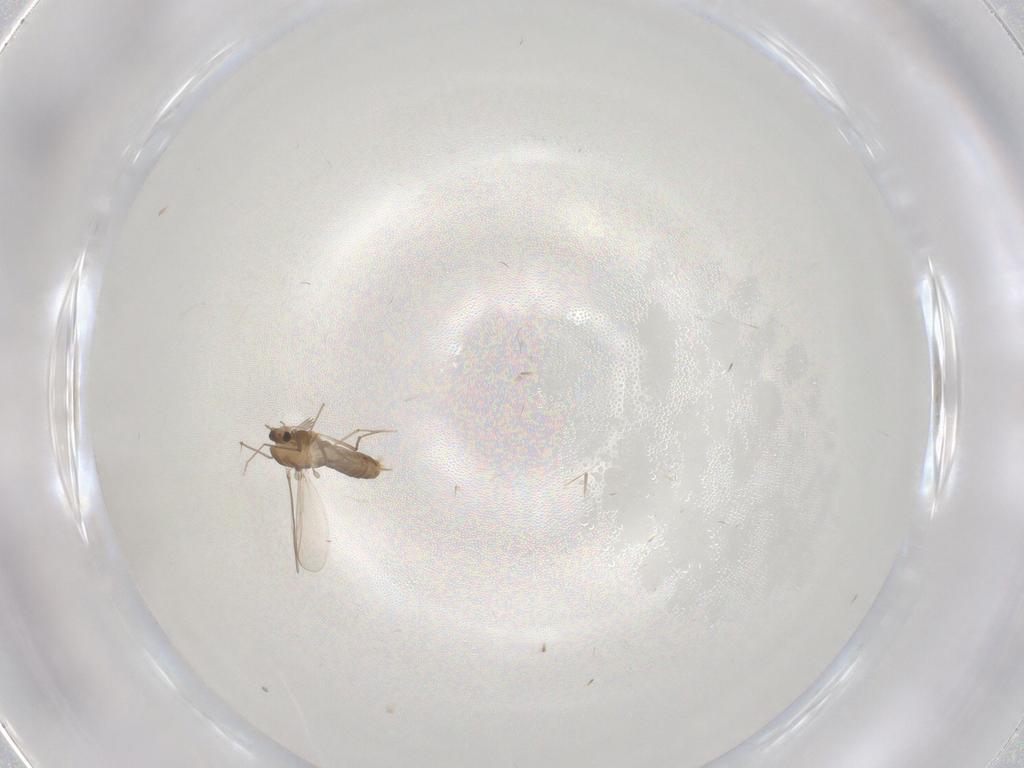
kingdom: Animalia
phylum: Arthropoda
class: Insecta
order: Diptera
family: Chironomidae
